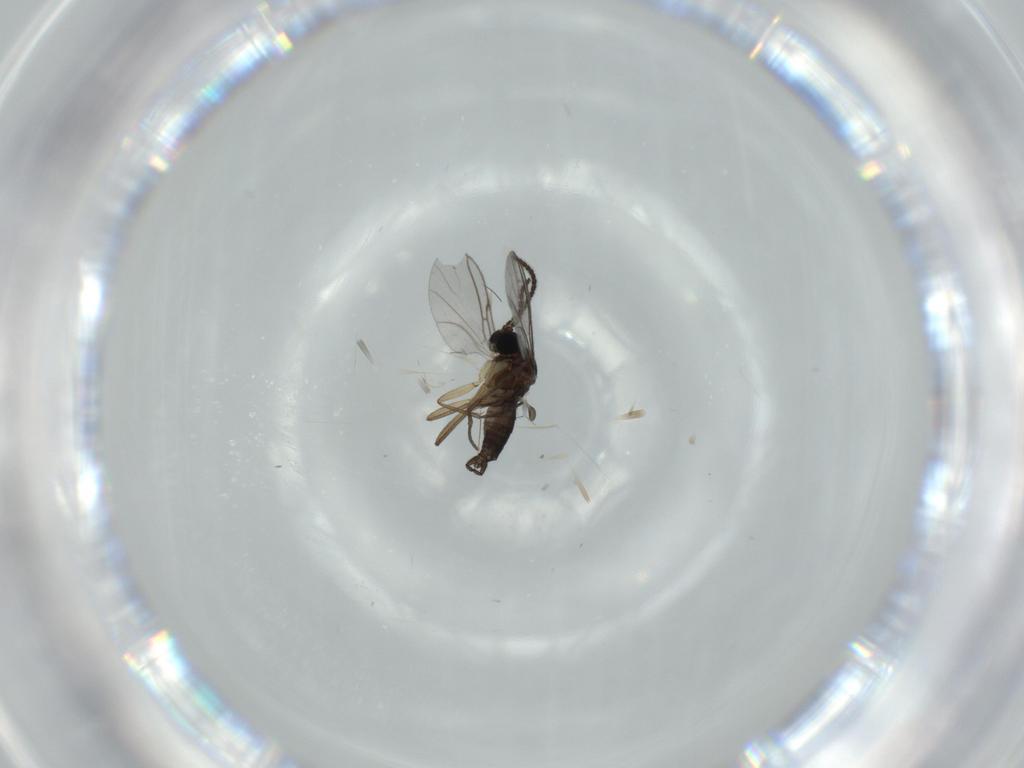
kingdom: Animalia
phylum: Arthropoda
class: Insecta
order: Diptera
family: Sciaridae
